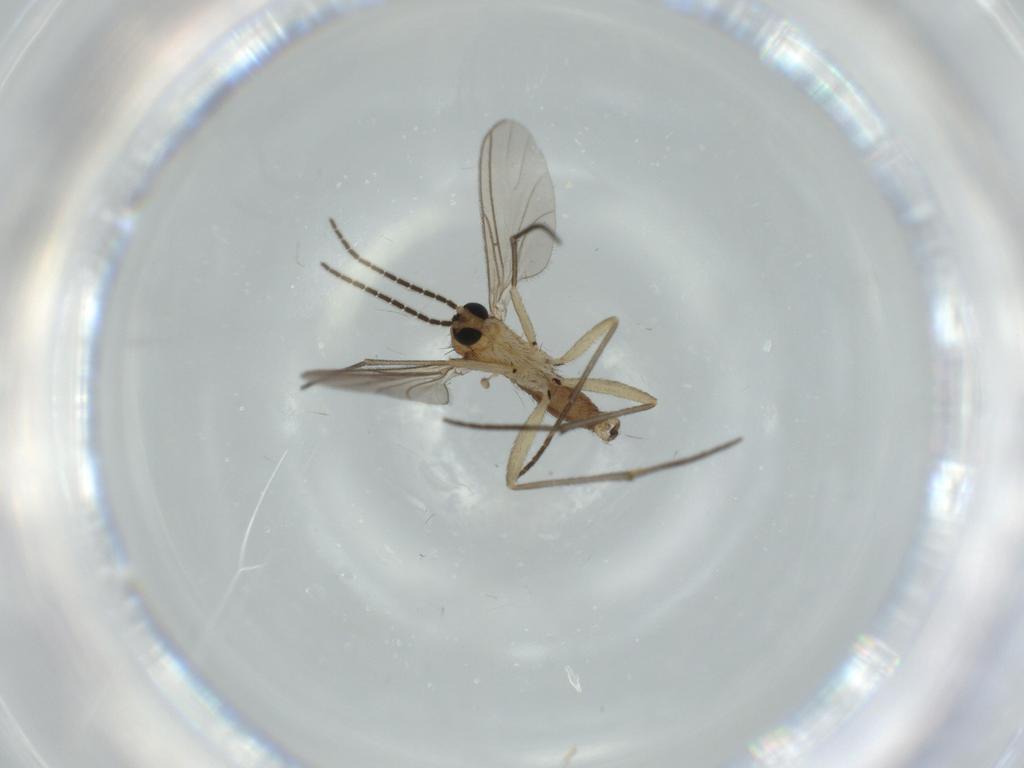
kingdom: Animalia
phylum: Arthropoda
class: Insecta
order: Diptera
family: Sciaridae
